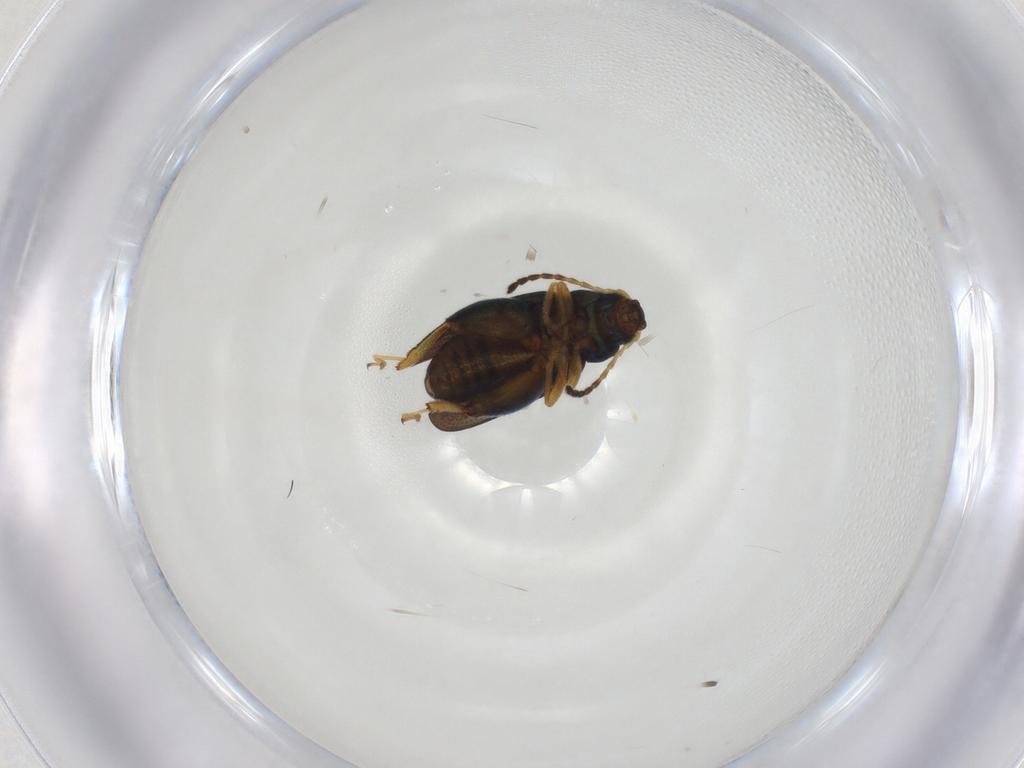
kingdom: Animalia
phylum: Arthropoda
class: Insecta
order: Coleoptera
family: Chrysomelidae
